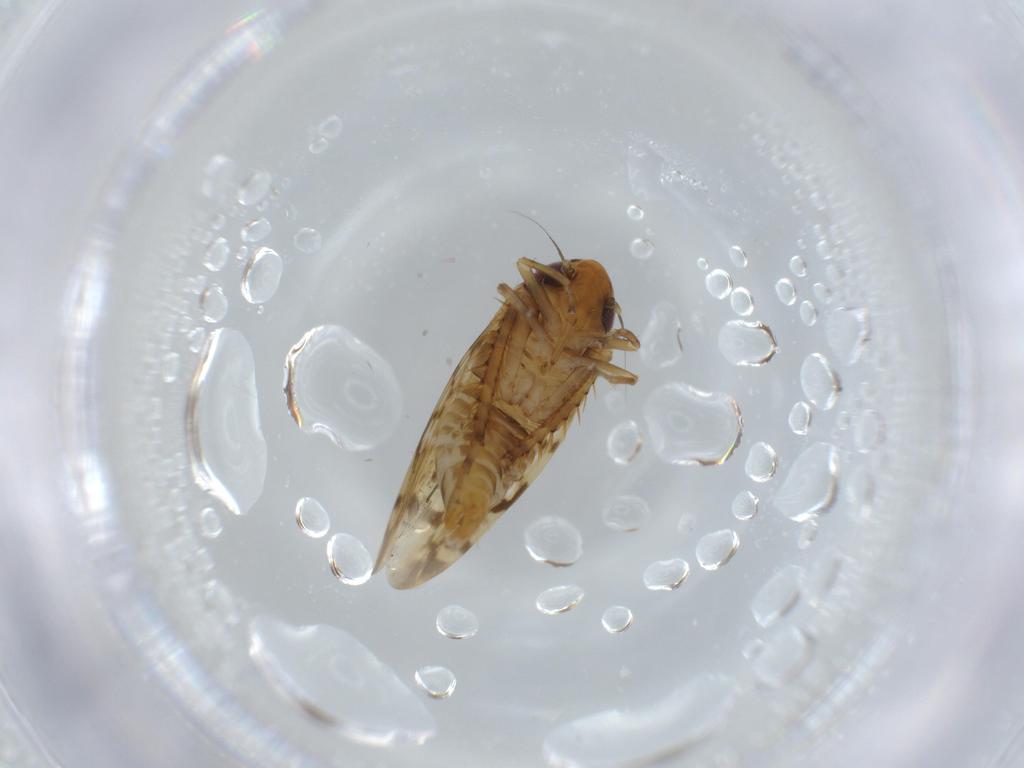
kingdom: Animalia
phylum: Arthropoda
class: Insecta
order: Hemiptera
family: Cicadellidae
